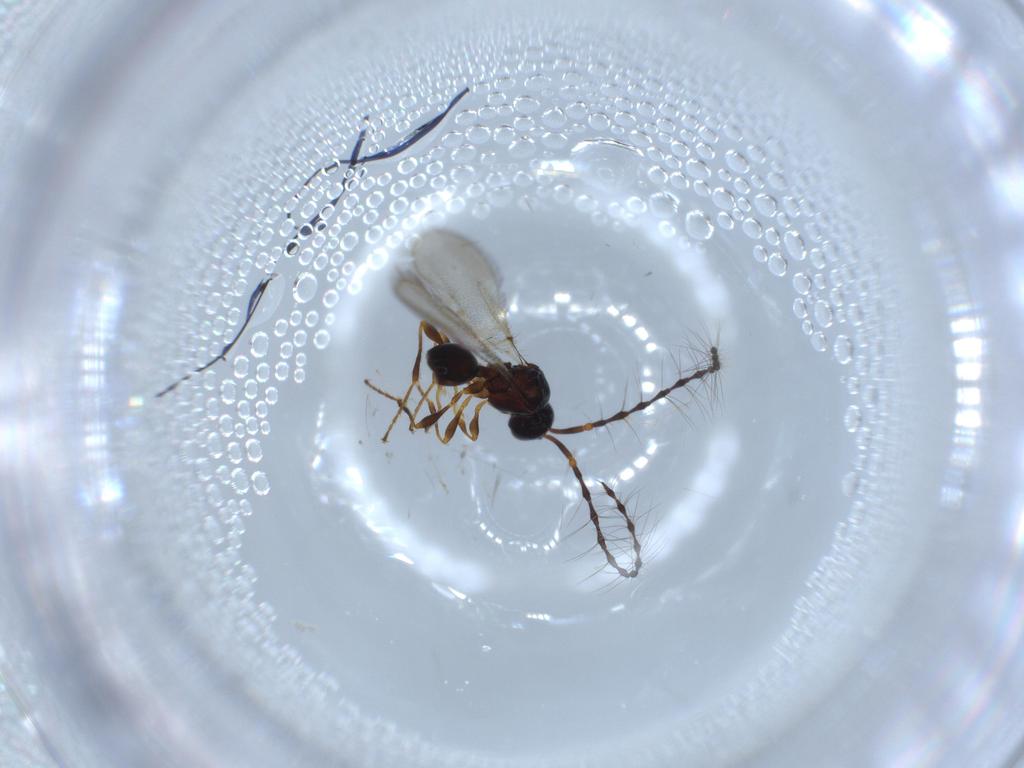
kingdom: Animalia
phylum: Arthropoda
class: Insecta
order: Hymenoptera
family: Diapriidae
